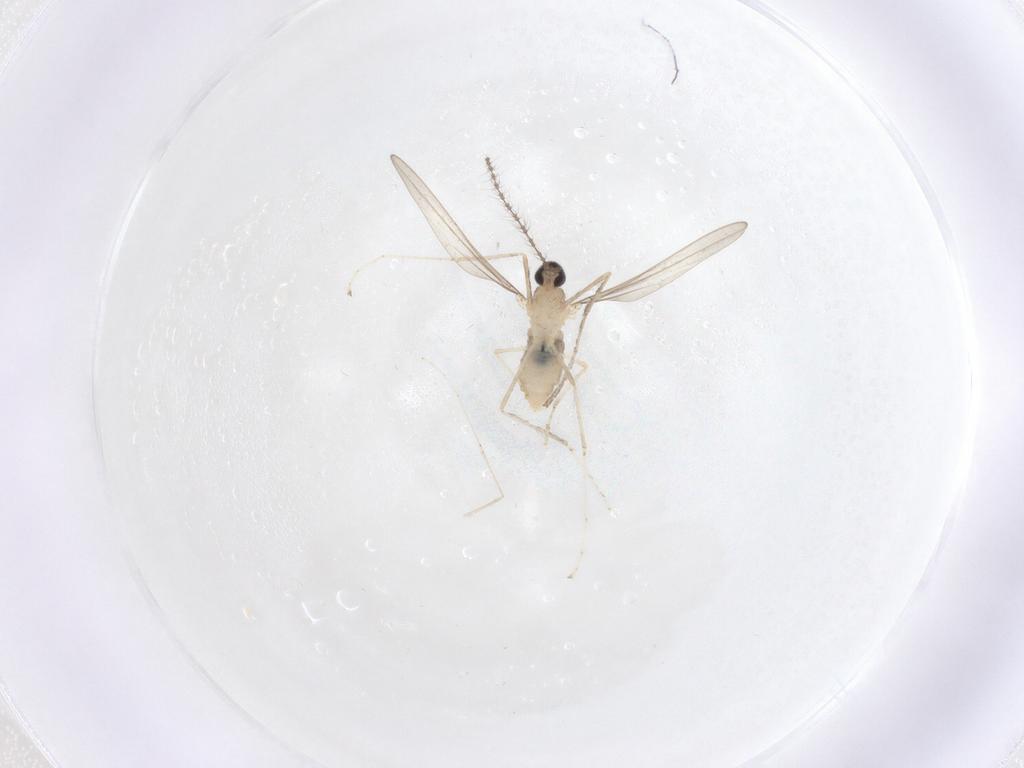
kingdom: Animalia
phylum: Arthropoda
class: Insecta
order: Diptera
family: Cecidomyiidae
